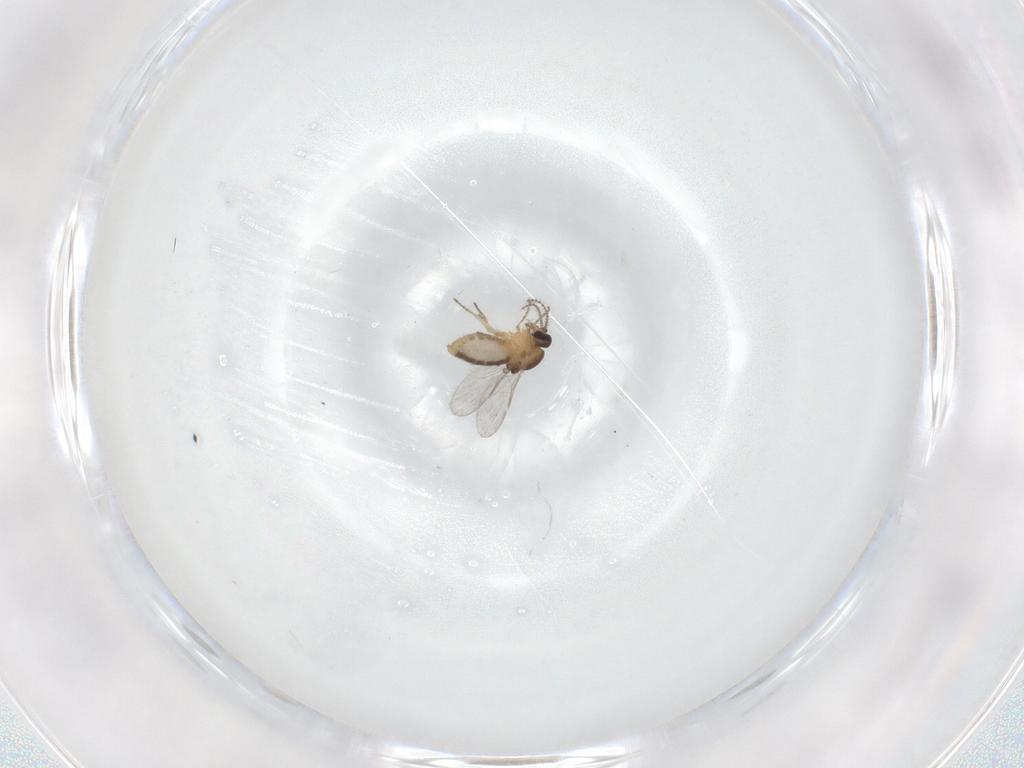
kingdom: Animalia
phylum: Arthropoda
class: Insecta
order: Diptera
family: Ceratopogonidae
